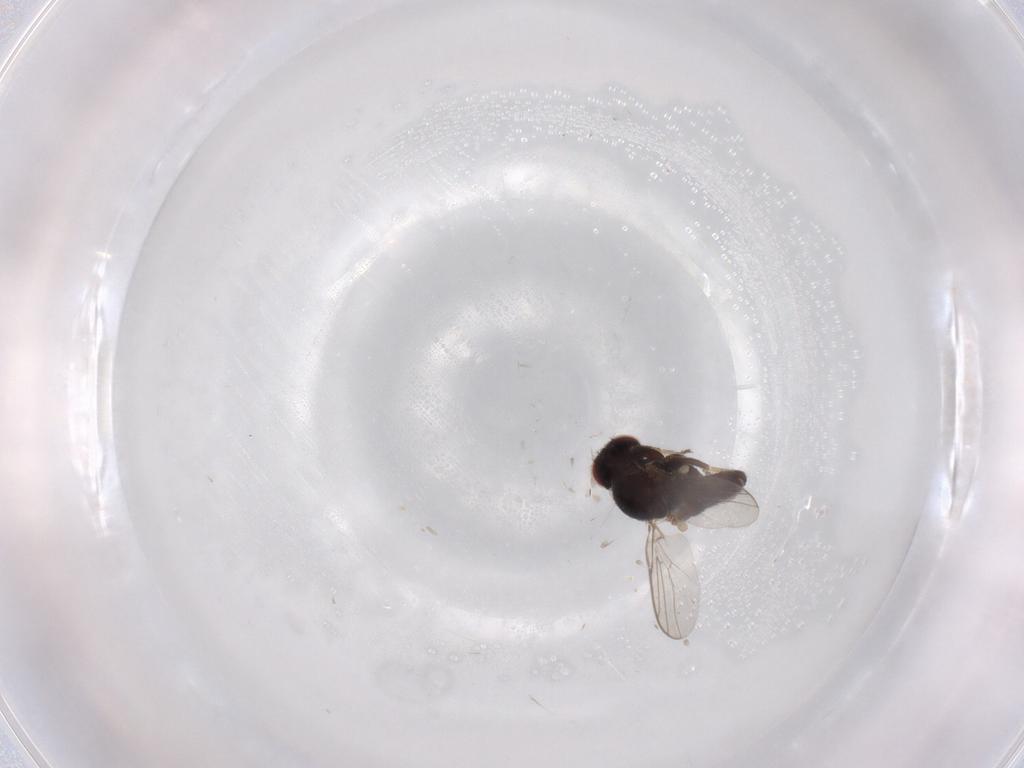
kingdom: Animalia
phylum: Arthropoda
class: Insecta
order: Diptera
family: Chloropidae
